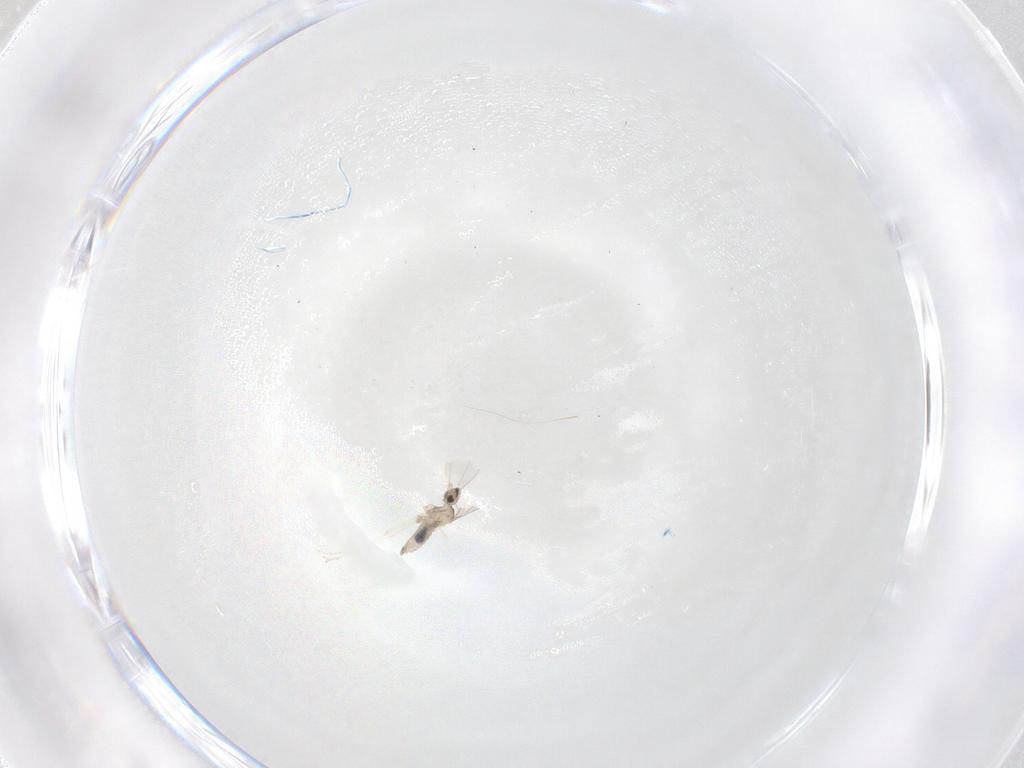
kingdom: Animalia
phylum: Arthropoda
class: Insecta
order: Diptera
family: Cecidomyiidae
